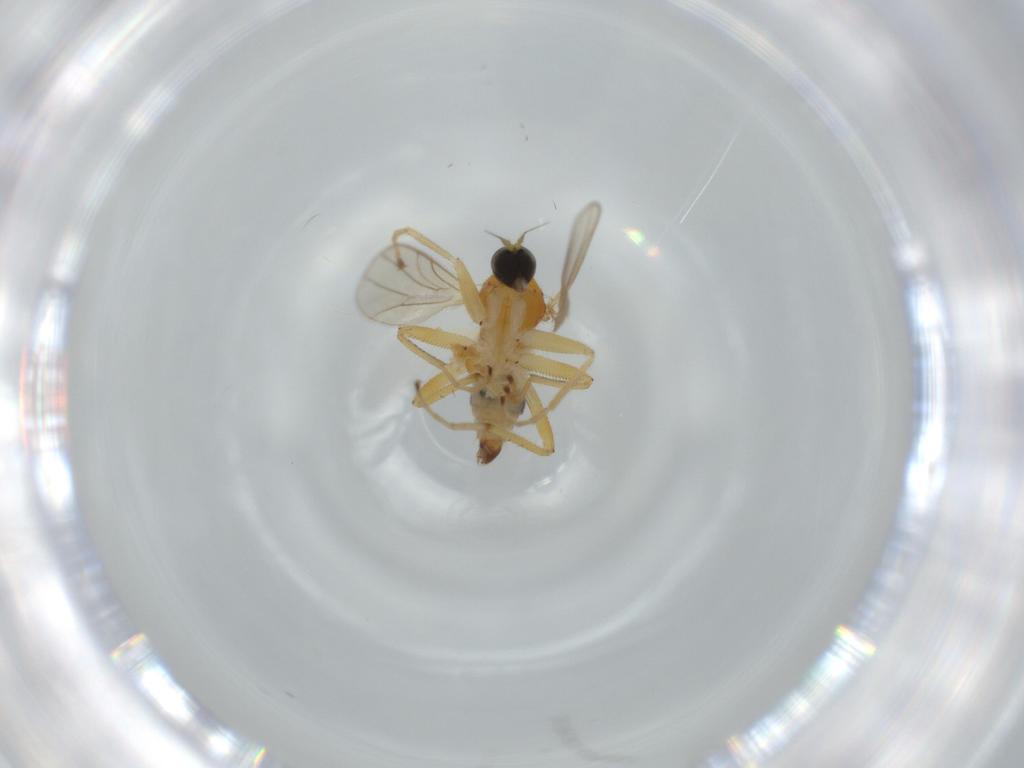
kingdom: Animalia
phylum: Arthropoda
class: Insecta
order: Diptera
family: Hybotidae
